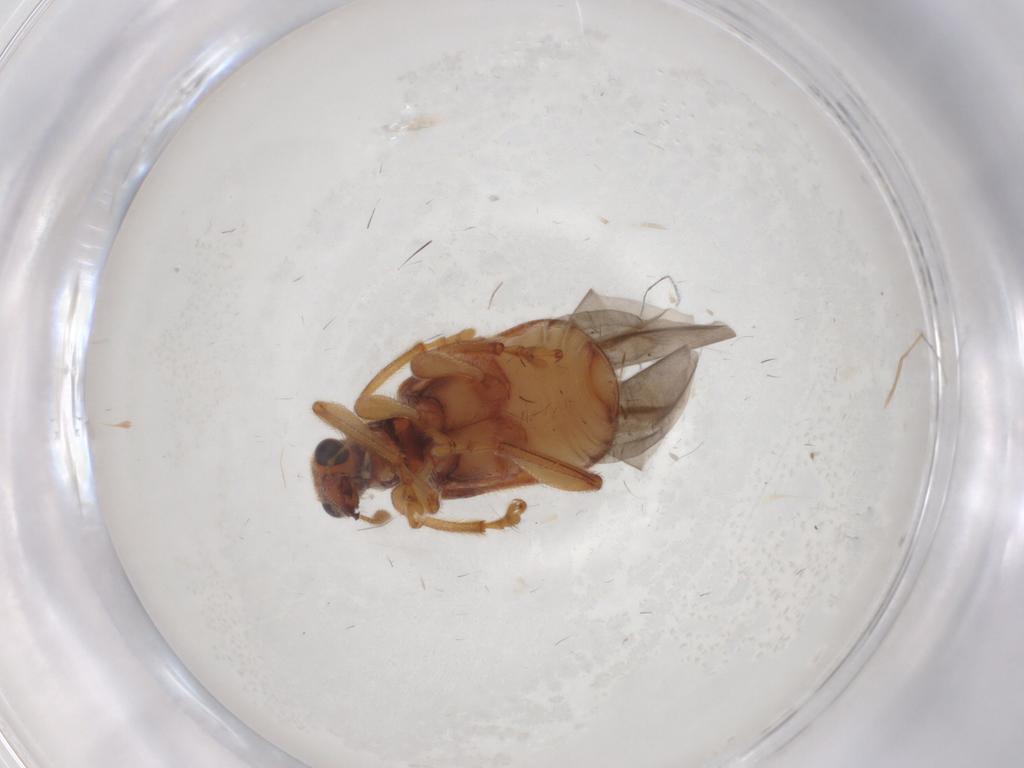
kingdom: Animalia
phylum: Arthropoda
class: Insecta
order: Coleoptera
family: Attelabidae
